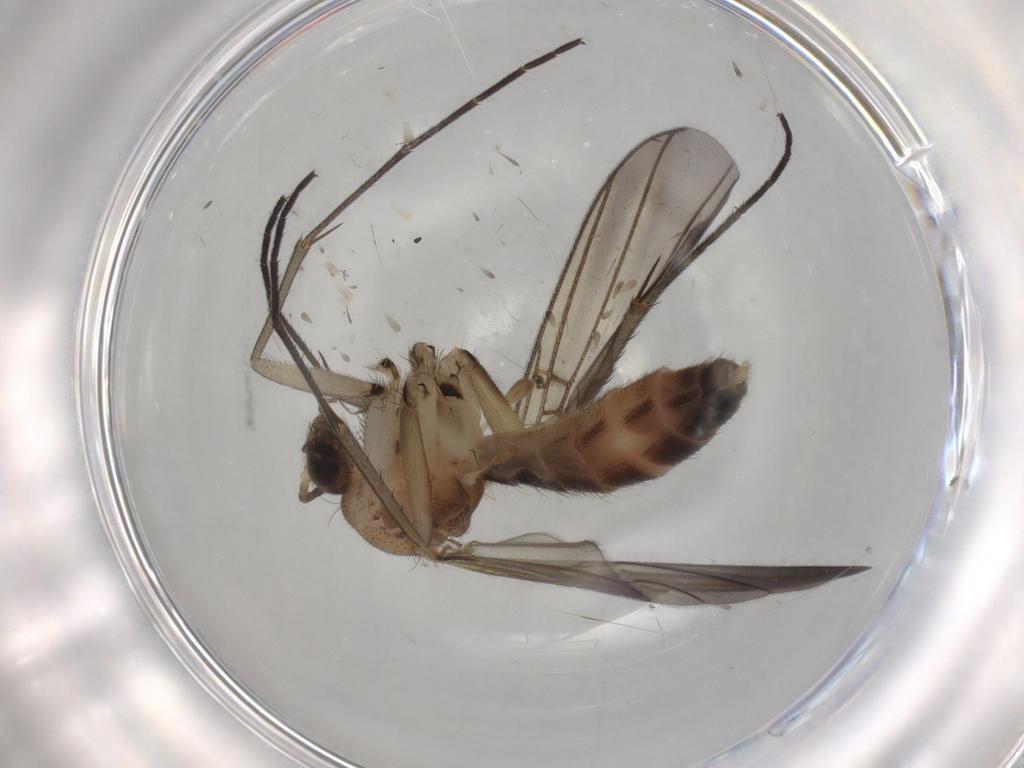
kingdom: Animalia
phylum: Arthropoda
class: Insecta
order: Diptera
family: Sciaridae
